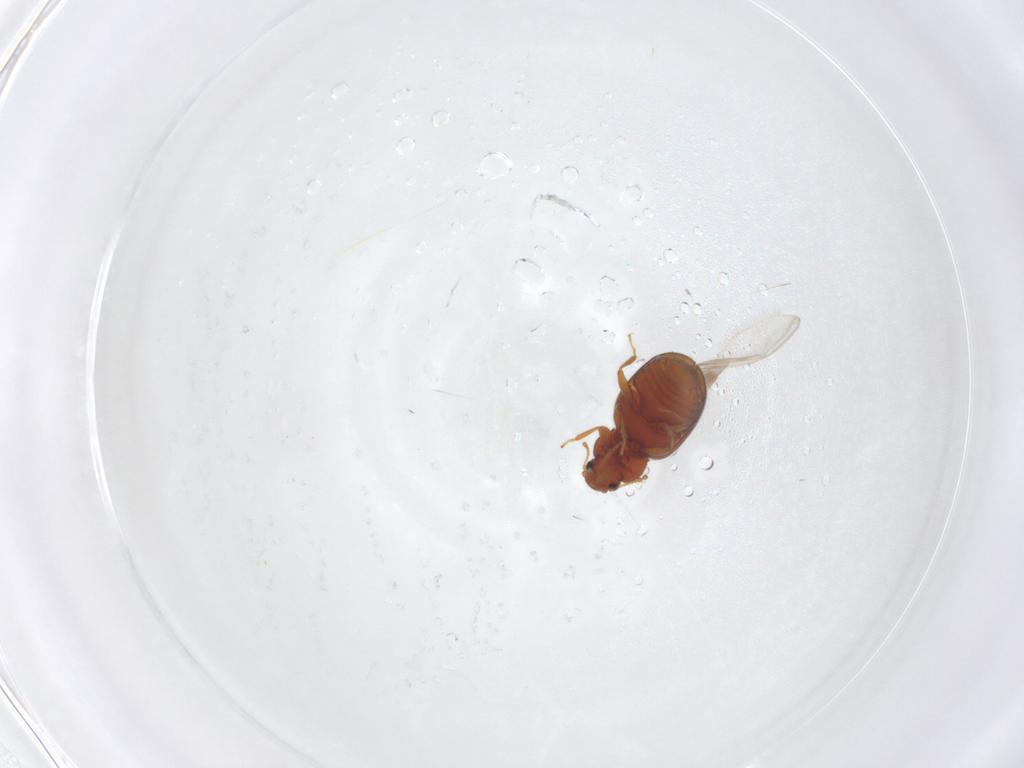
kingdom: Animalia
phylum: Arthropoda
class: Insecta
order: Coleoptera
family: Latridiidae
